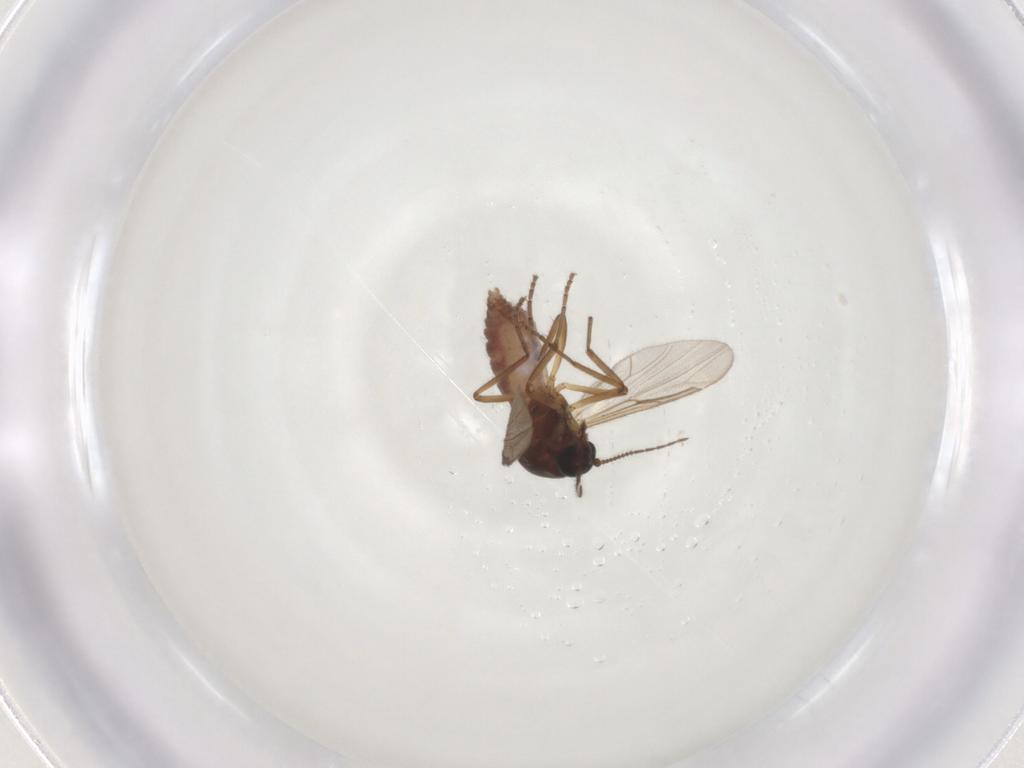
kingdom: Animalia
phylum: Arthropoda
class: Insecta
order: Diptera
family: Ceratopogonidae
